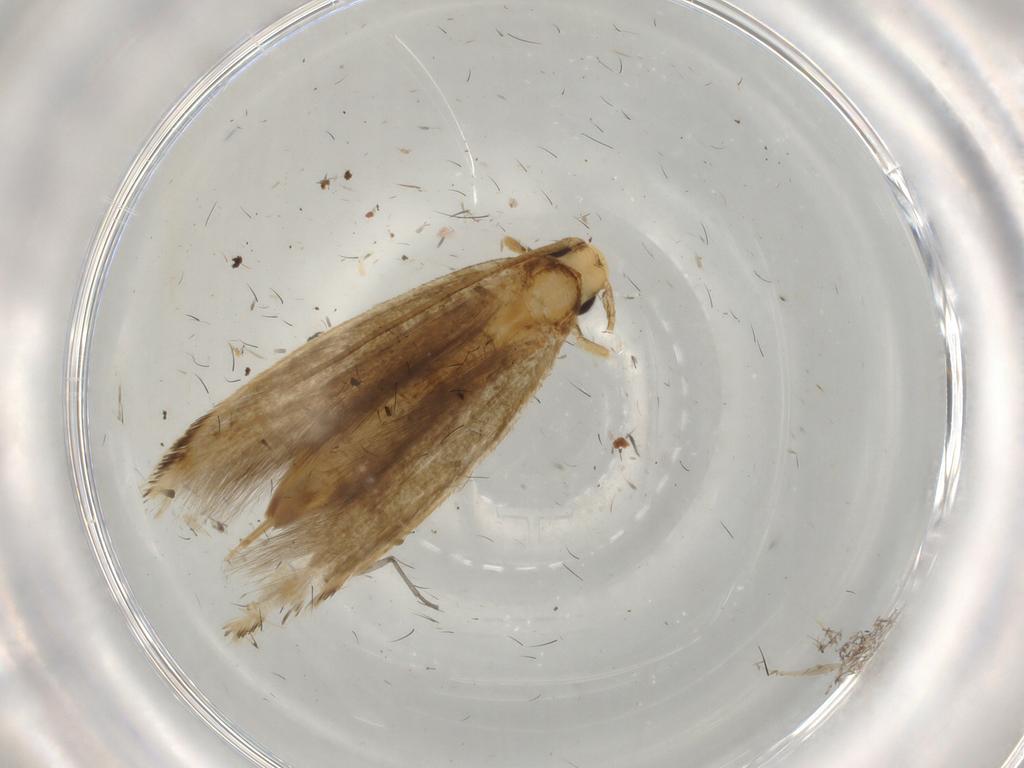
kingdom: Animalia
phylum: Arthropoda
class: Insecta
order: Lepidoptera
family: Tineidae
